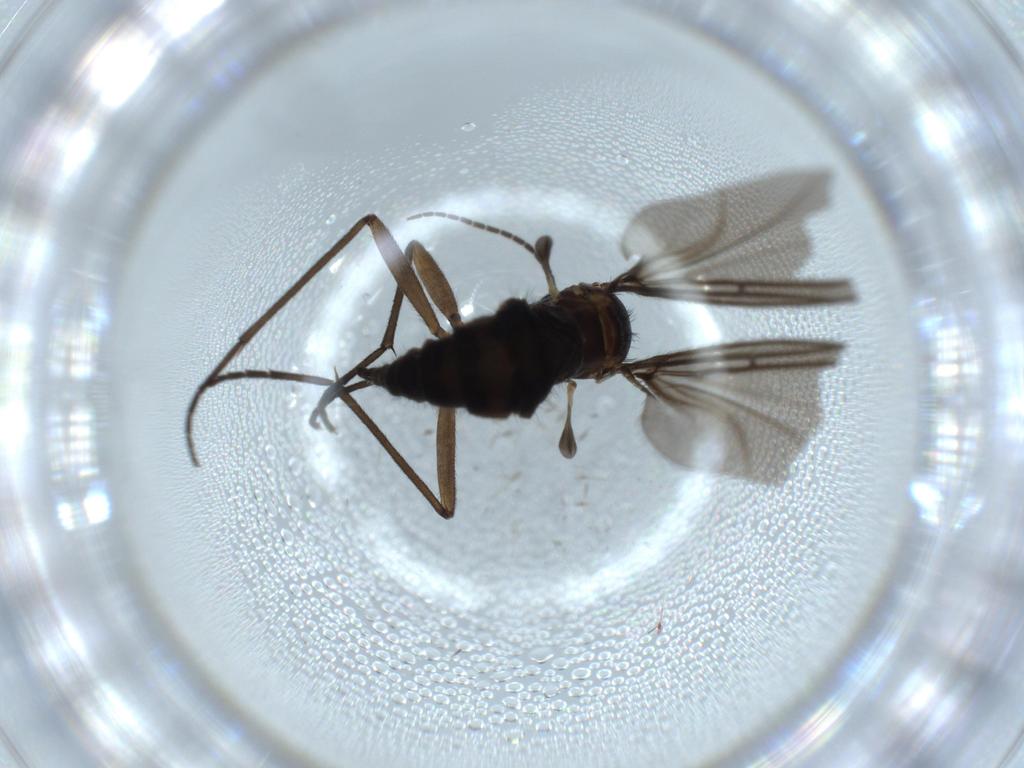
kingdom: Animalia
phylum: Arthropoda
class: Insecta
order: Diptera
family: Sciaridae
